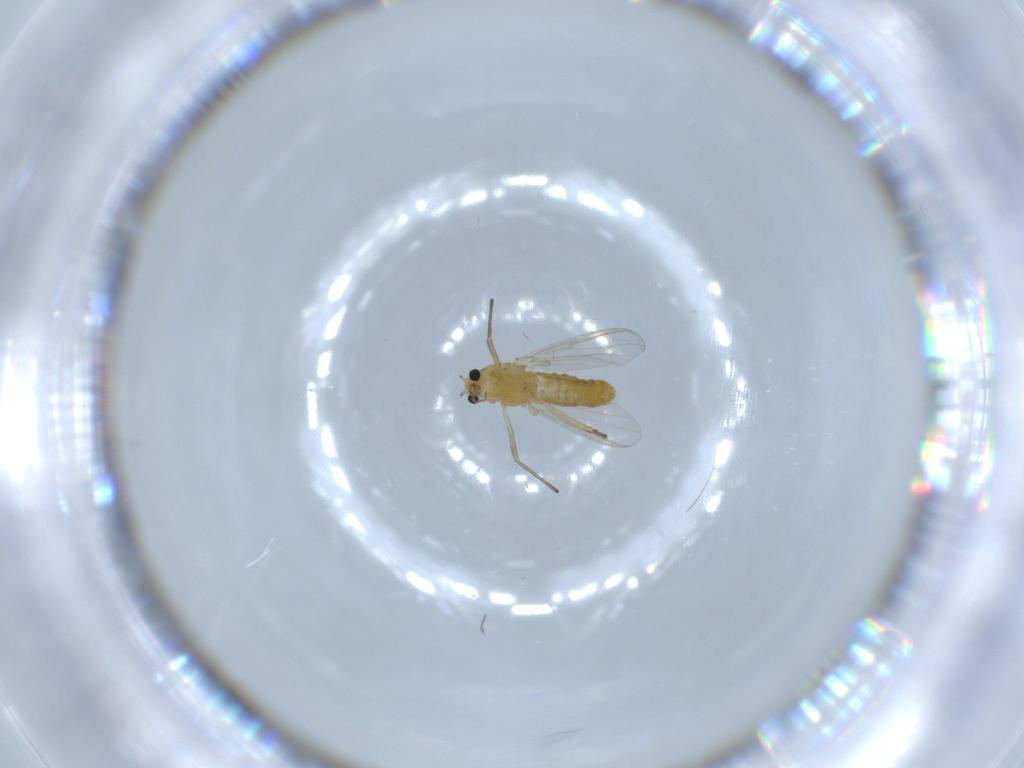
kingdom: Animalia
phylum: Arthropoda
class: Insecta
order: Diptera
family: Chironomidae
